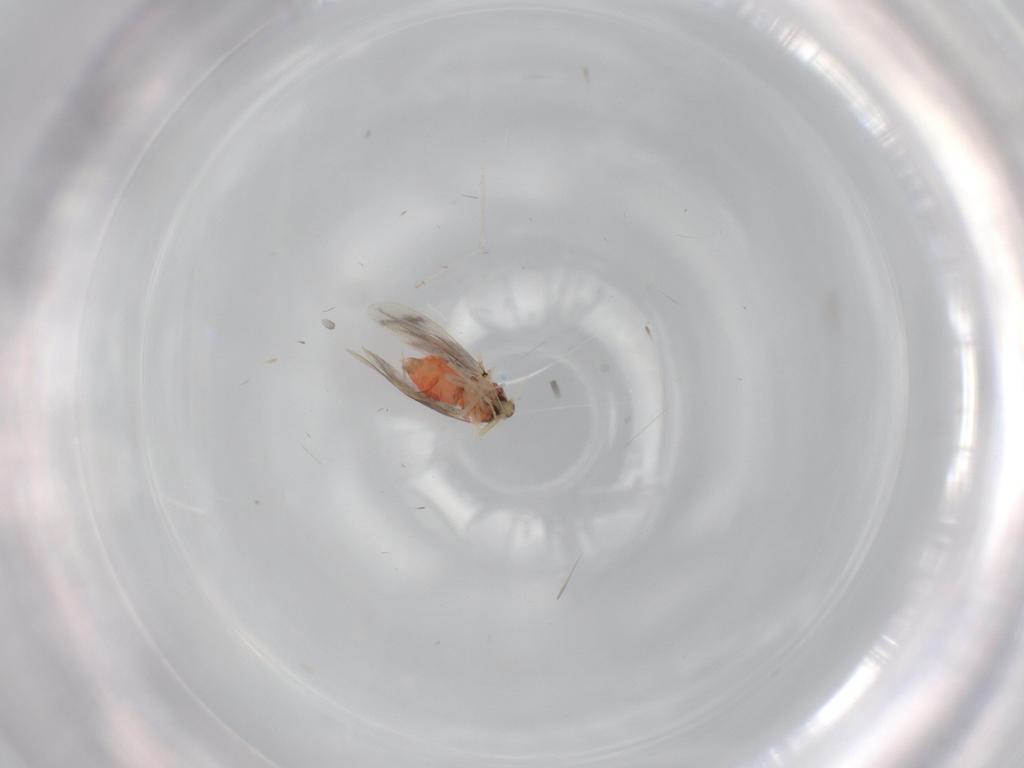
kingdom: Animalia
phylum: Arthropoda
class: Insecta
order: Hemiptera
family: Aleyrodidae
